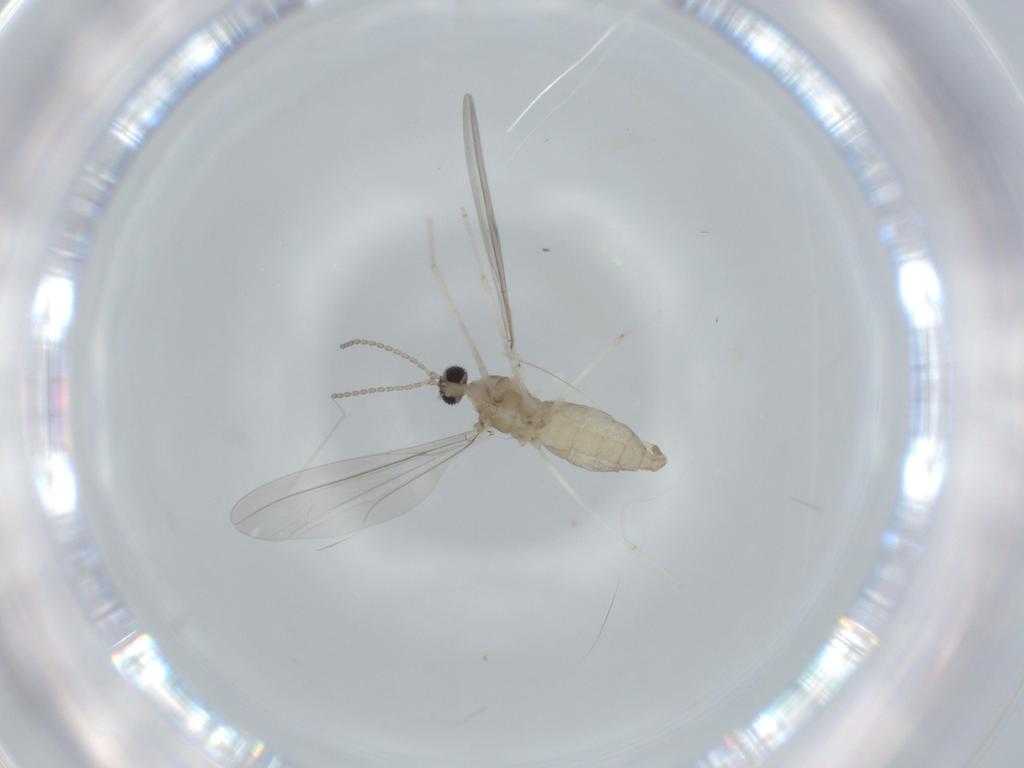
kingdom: Animalia
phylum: Arthropoda
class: Insecta
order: Diptera
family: Cecidomyiidae
